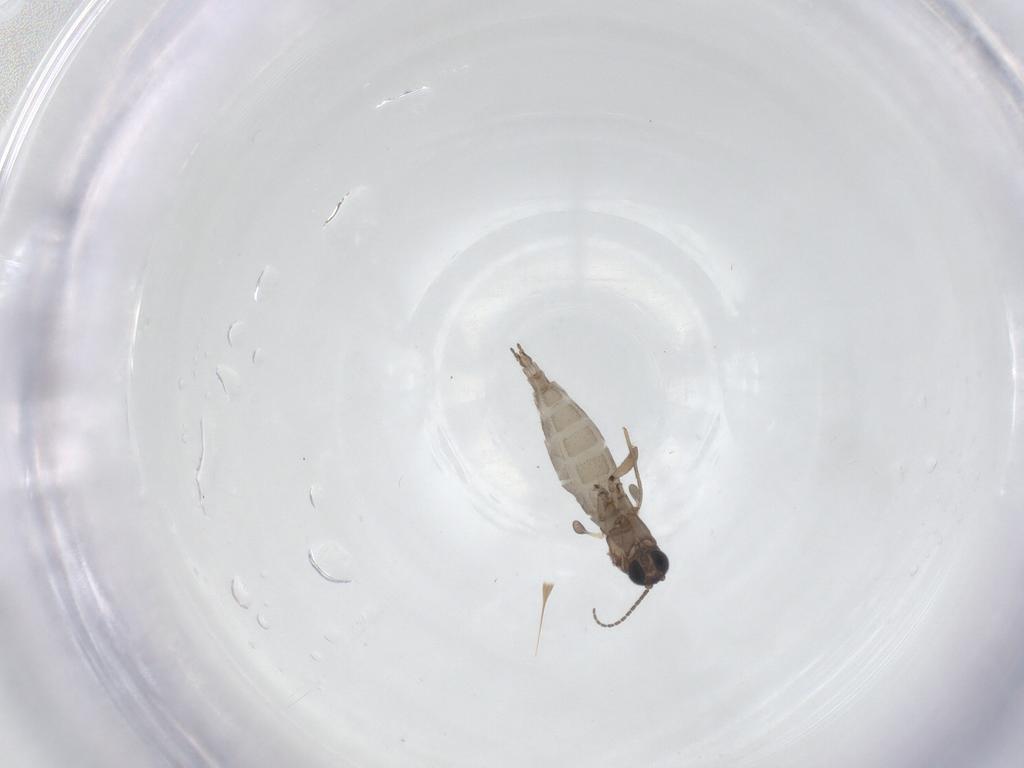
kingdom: Animalia
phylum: Arthropoda
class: Insecta
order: Diptera
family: Sciaridae
